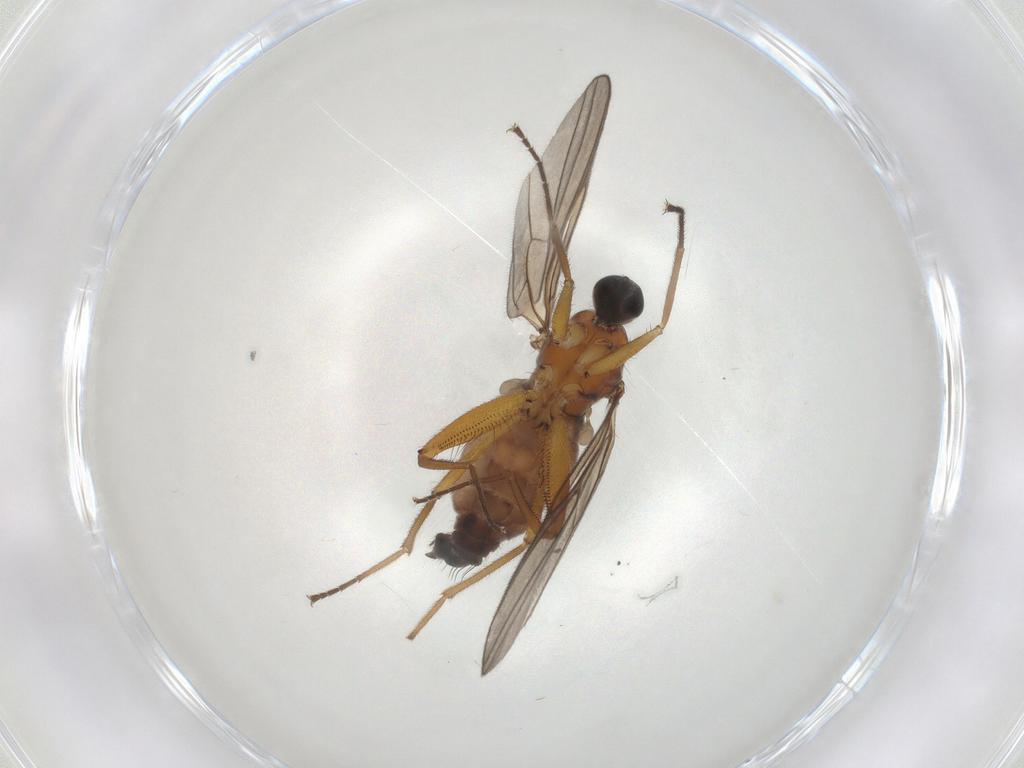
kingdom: Animalia
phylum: Arthropoda
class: Insecta
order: Diptera
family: Hybotidae
